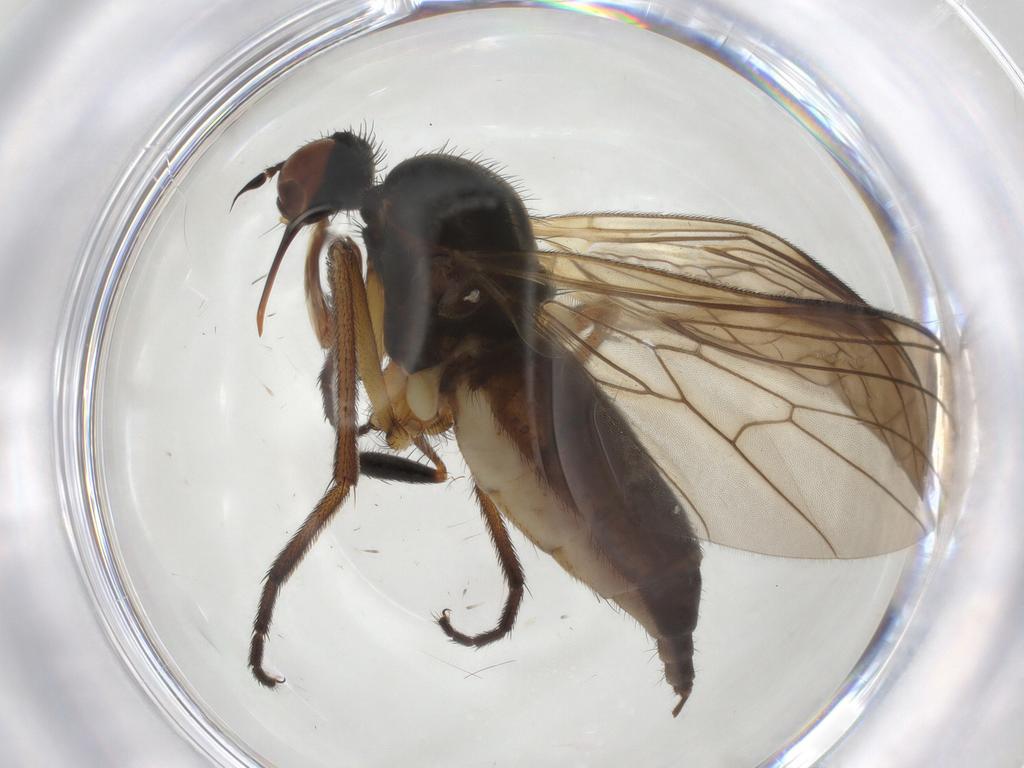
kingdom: Animalia
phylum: Arthropoda
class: Insecta
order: Diptera
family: Empididae
